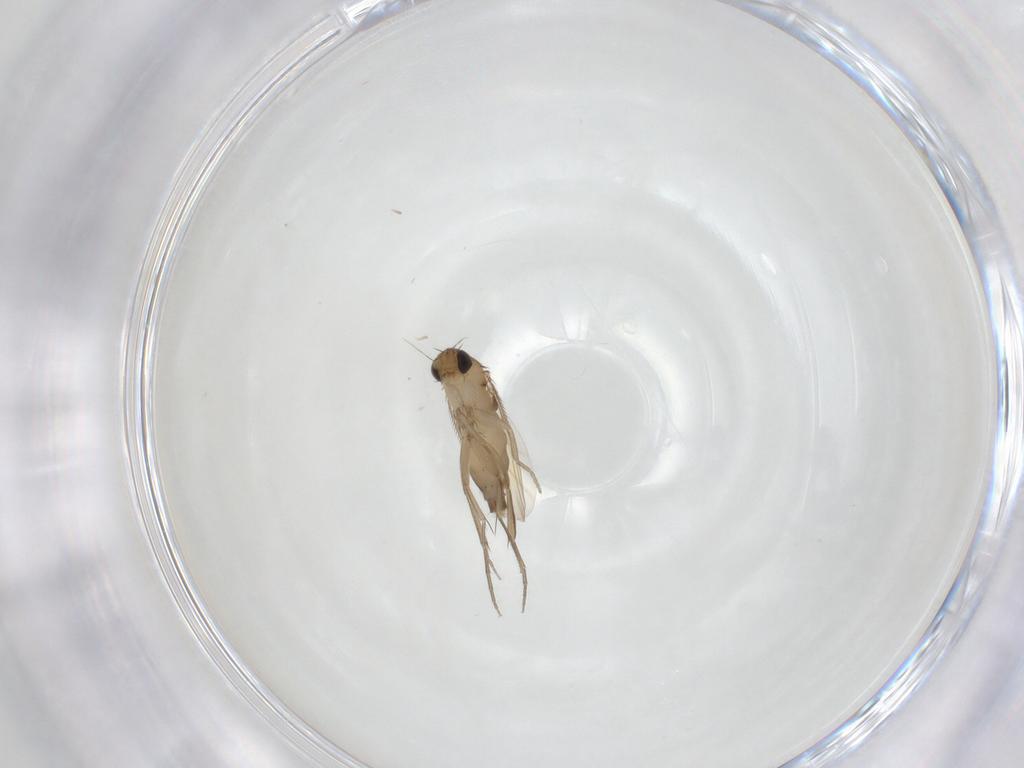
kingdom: Animalia
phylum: Arthropoda
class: Insecta
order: Diptera
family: Phoridae
